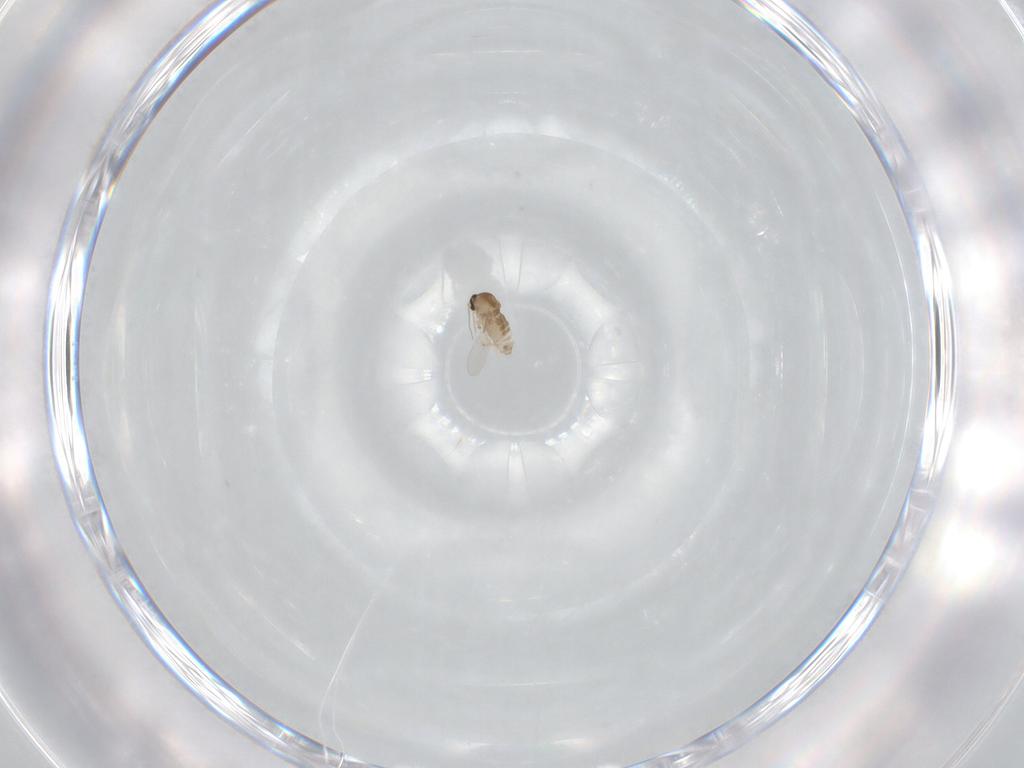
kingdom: Animalia
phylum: Arthropoda
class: Insecta
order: Diptera
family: Ceratopogonidae
